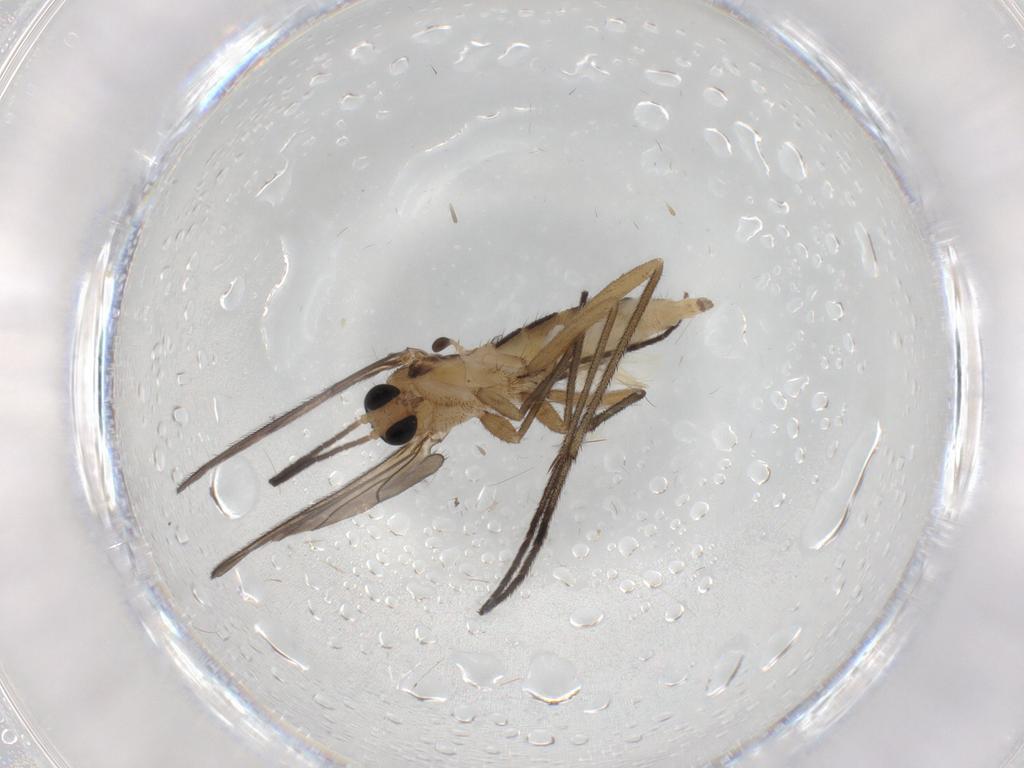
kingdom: Animalia
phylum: Arthropoda
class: Insecta
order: Diptera
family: Sciaridae
